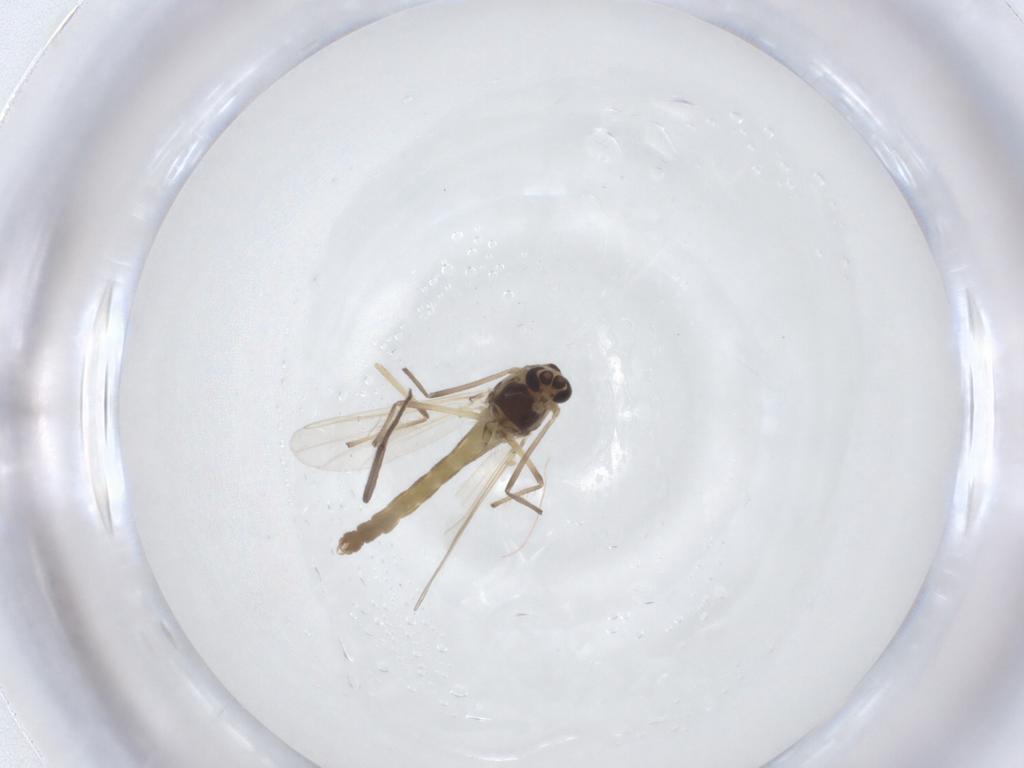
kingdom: Animalia
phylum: Arthropoda
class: Insecta
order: Diptera
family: Chironomidae
